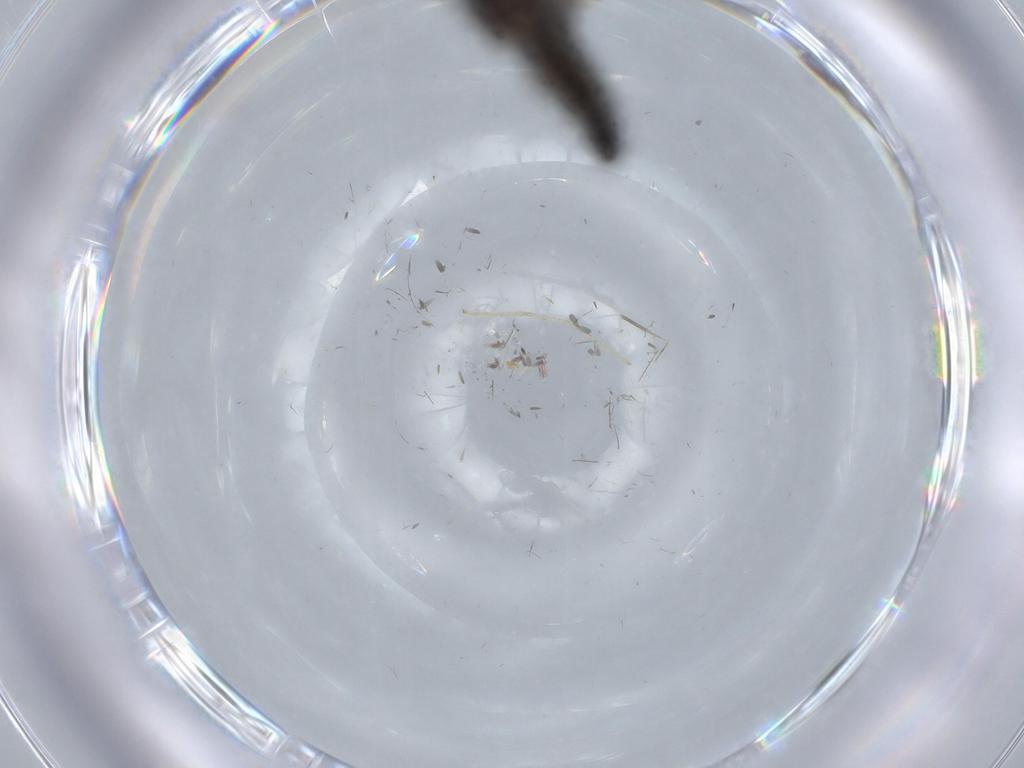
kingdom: Animalia
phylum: Arthropoda
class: Insecta
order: Diptera
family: Sciaridae
